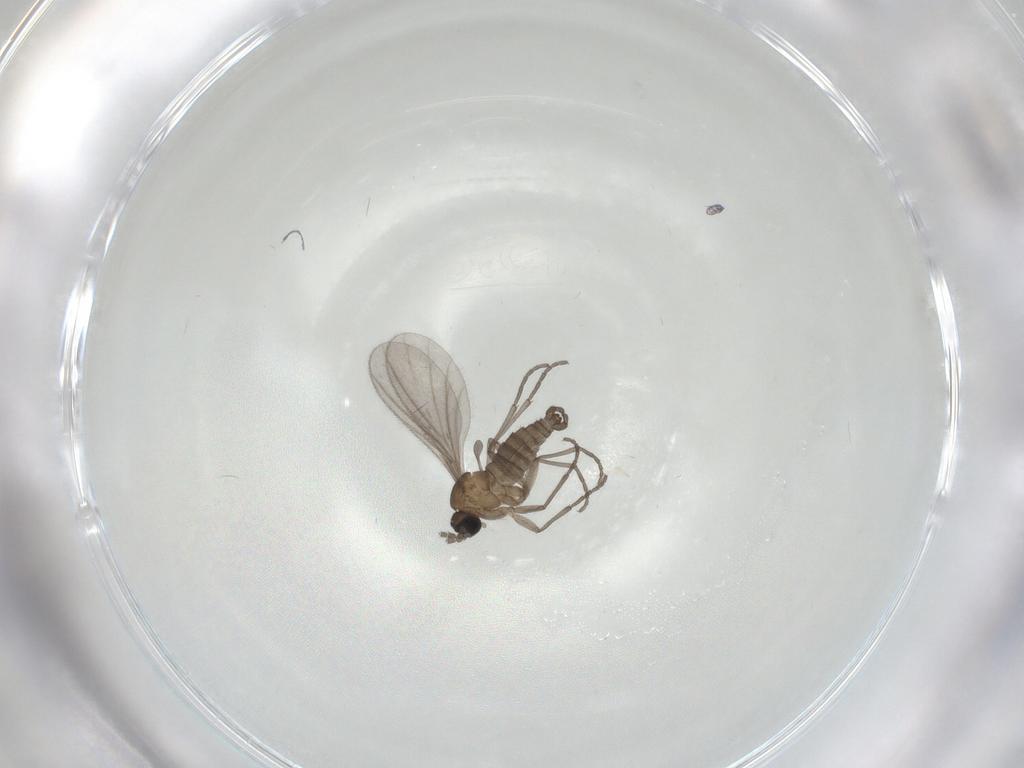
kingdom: Animalia
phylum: Arthropoda
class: Insecta
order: Diptera
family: Sciaridae
